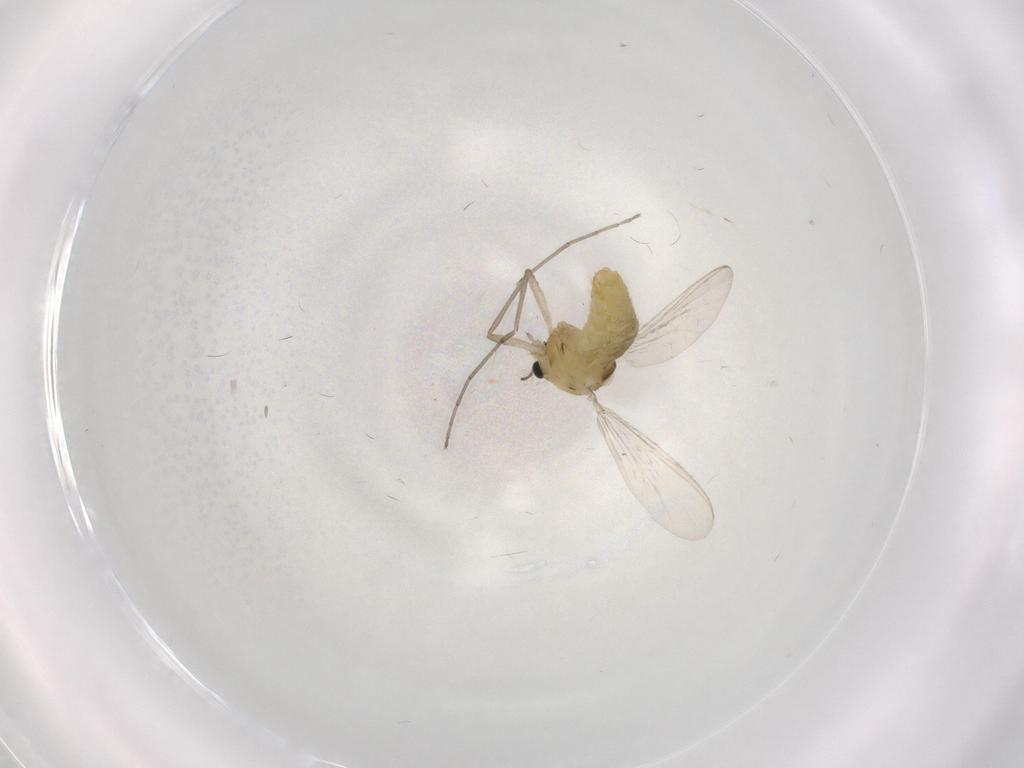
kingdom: Animalia
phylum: Arthropoda
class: Insecta
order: Diptera
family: Chironomidae
